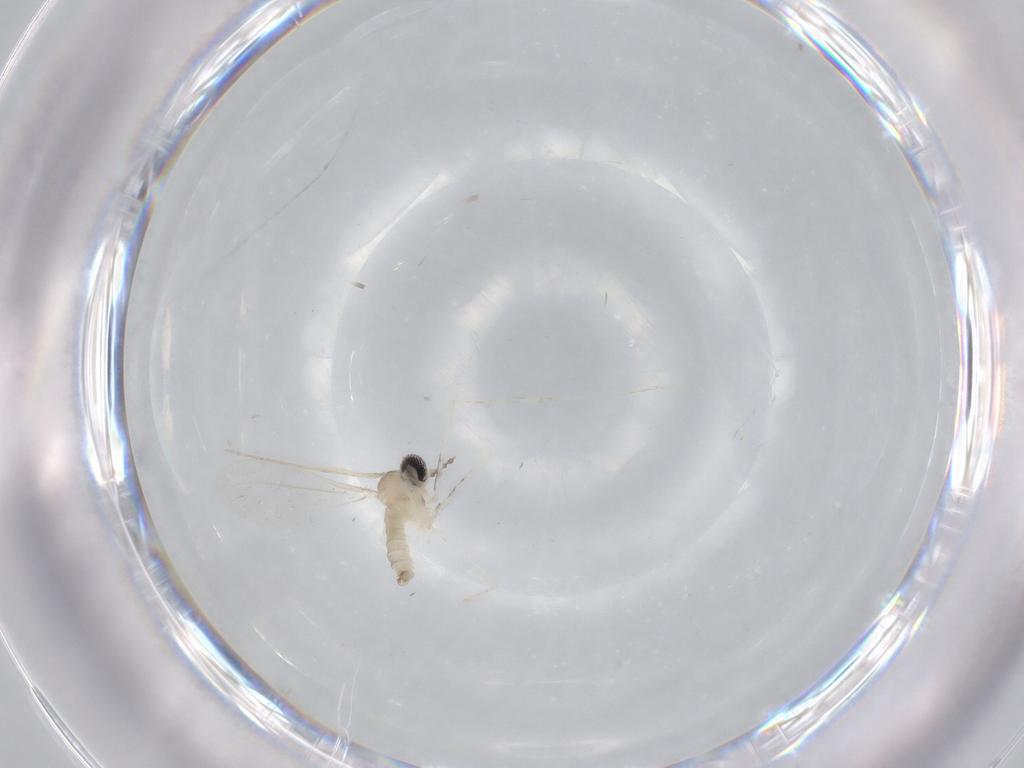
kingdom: Animalia
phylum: Arthropoda
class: Insecta
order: Diptera
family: Cecidomyiidae
